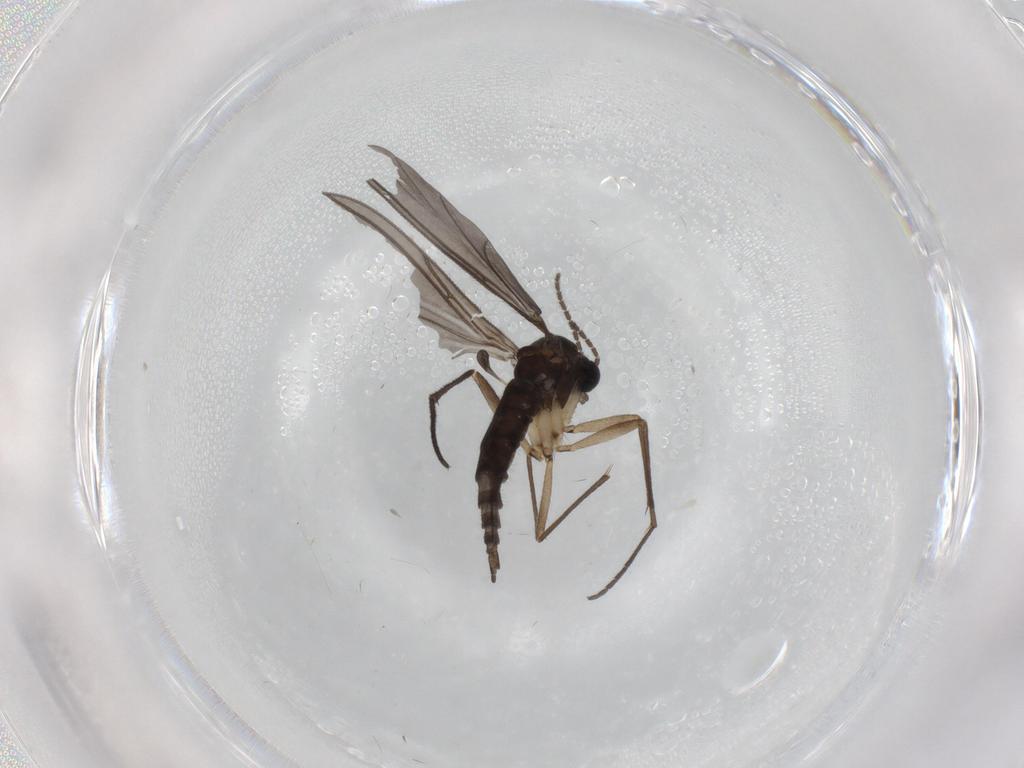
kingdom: Animalia
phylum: Arthropoda
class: Insecta
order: Diptera
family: Sciaridae
